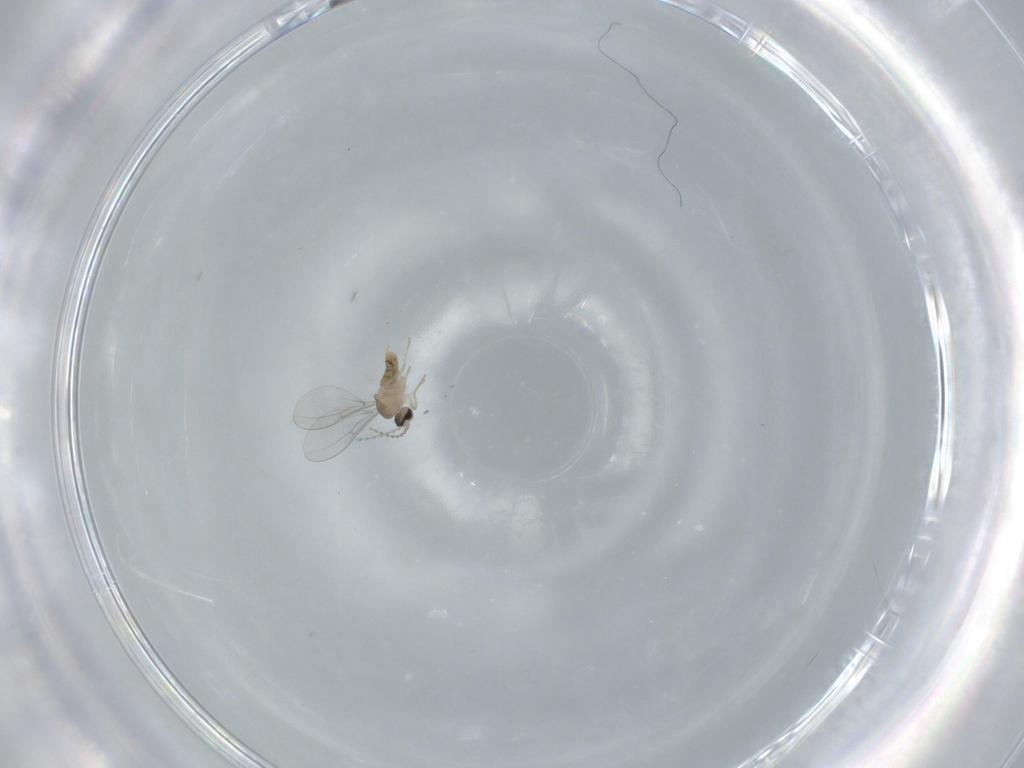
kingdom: Animalia
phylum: Arthropoda
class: Insecta
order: Diptera
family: Cecidomyiidae
